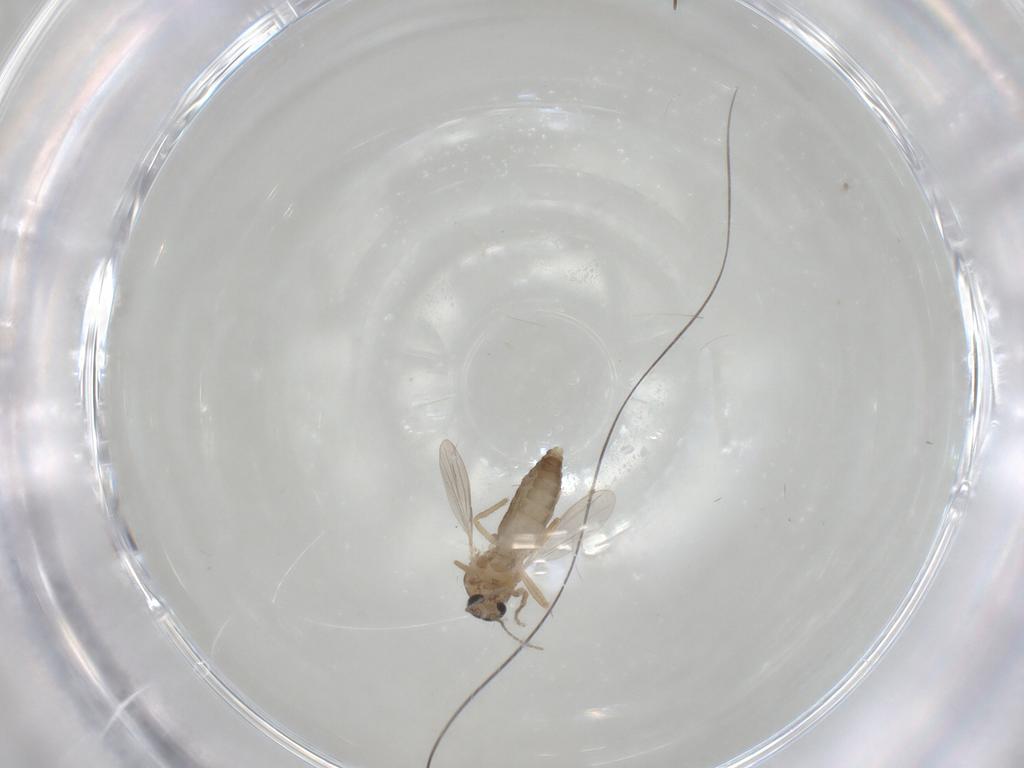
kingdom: Animalia
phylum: Arthropoda
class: Insecta
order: Diptera
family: Ceratopogonidae
